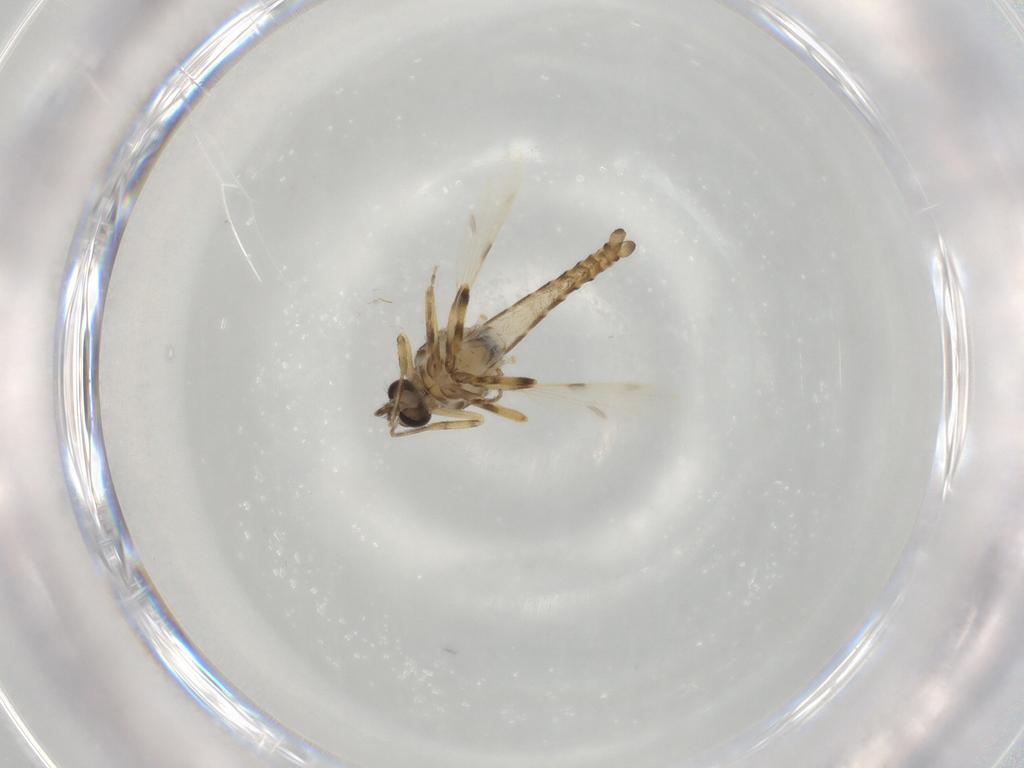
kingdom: Animalia
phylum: Arthropoda
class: Insecta
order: Diptera
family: Ceratopogonidae
